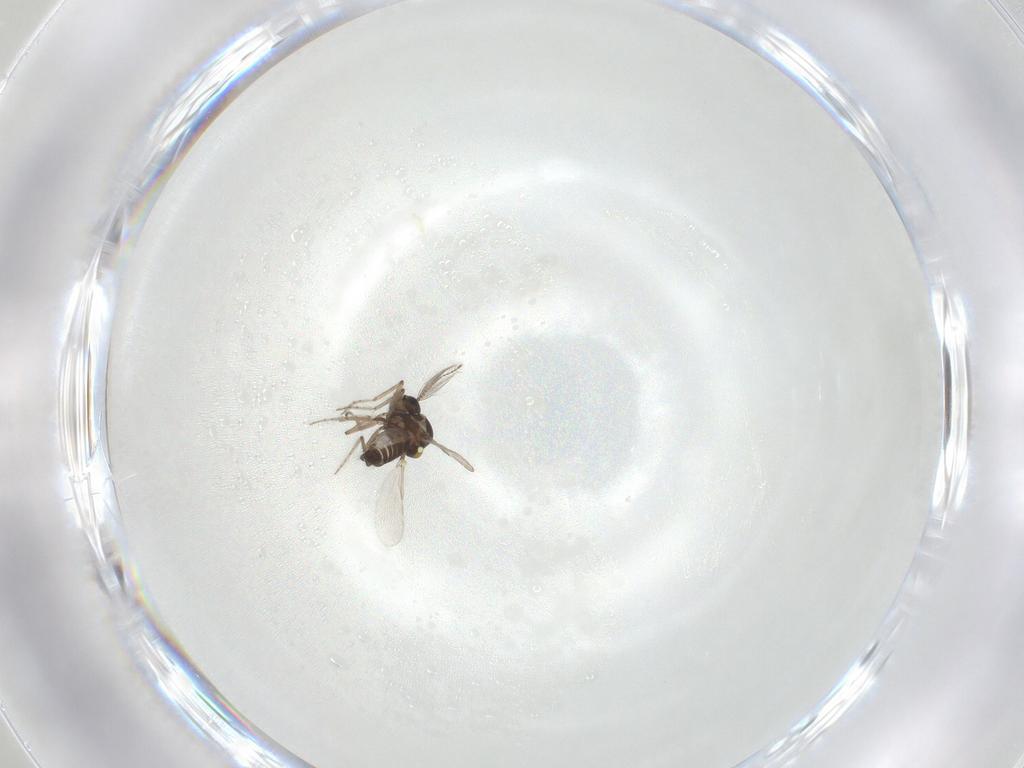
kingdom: Animalia
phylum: Arthropoda
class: Insecta
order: Diptera
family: Ceratopogonidae
